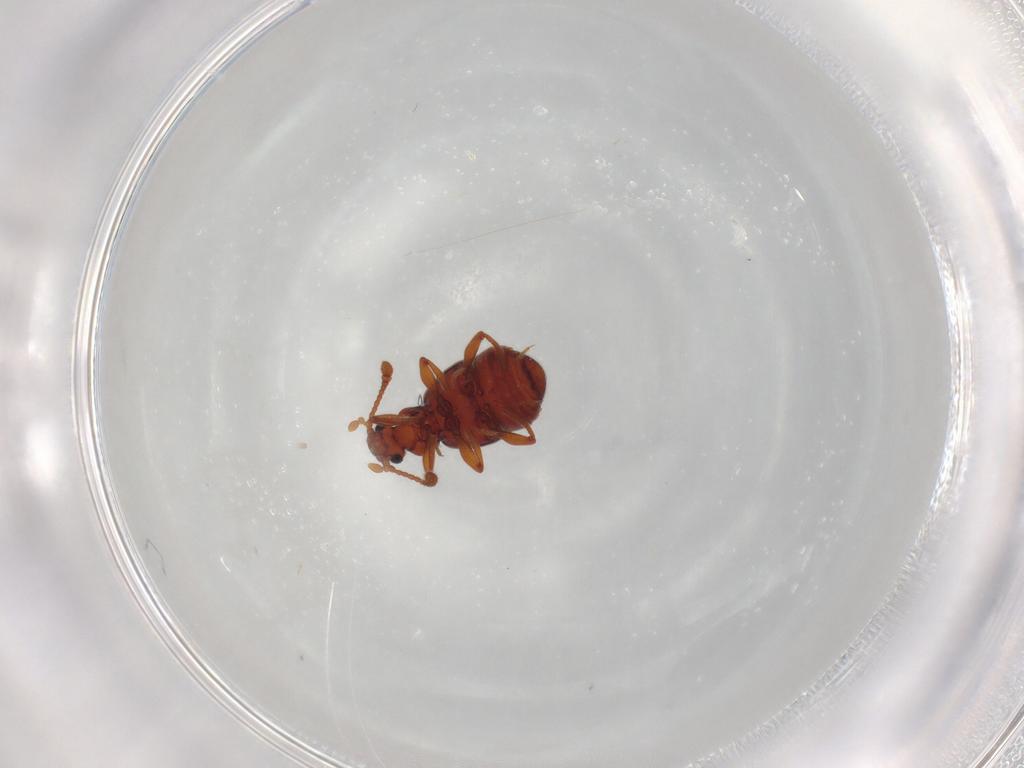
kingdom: Animalia
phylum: Arthropoda
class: Insecta
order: Coleoptera
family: Staphylinidae
